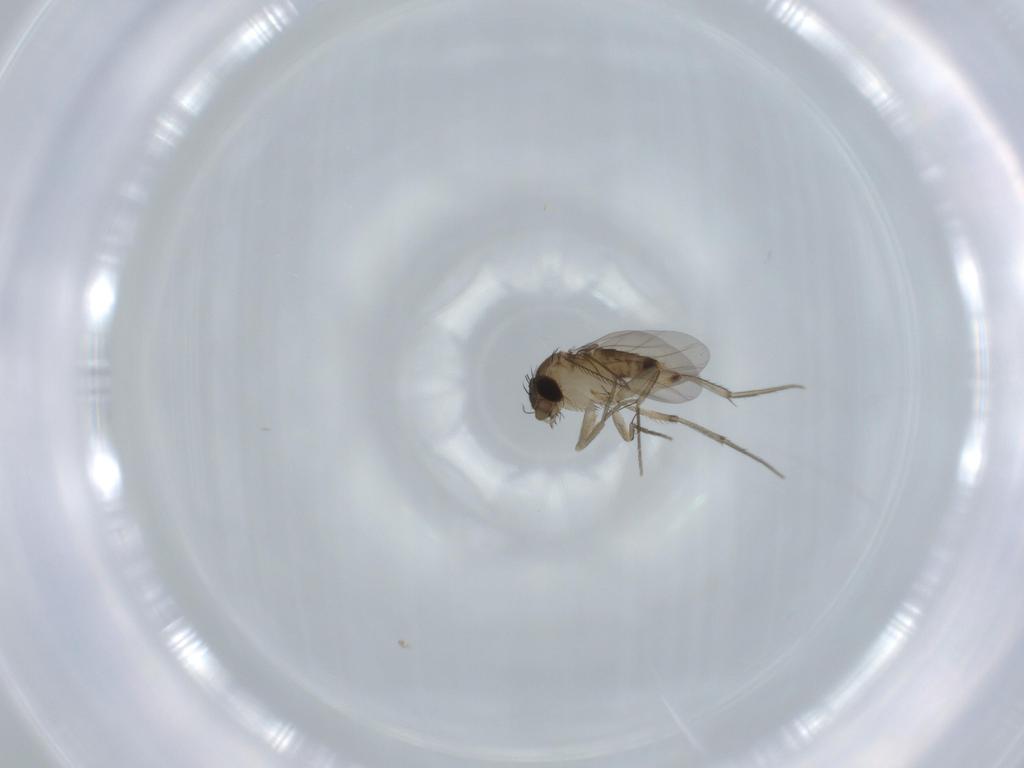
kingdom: Animalia
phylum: Arthropoda
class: Insecta
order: Diptera
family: Phoridae
